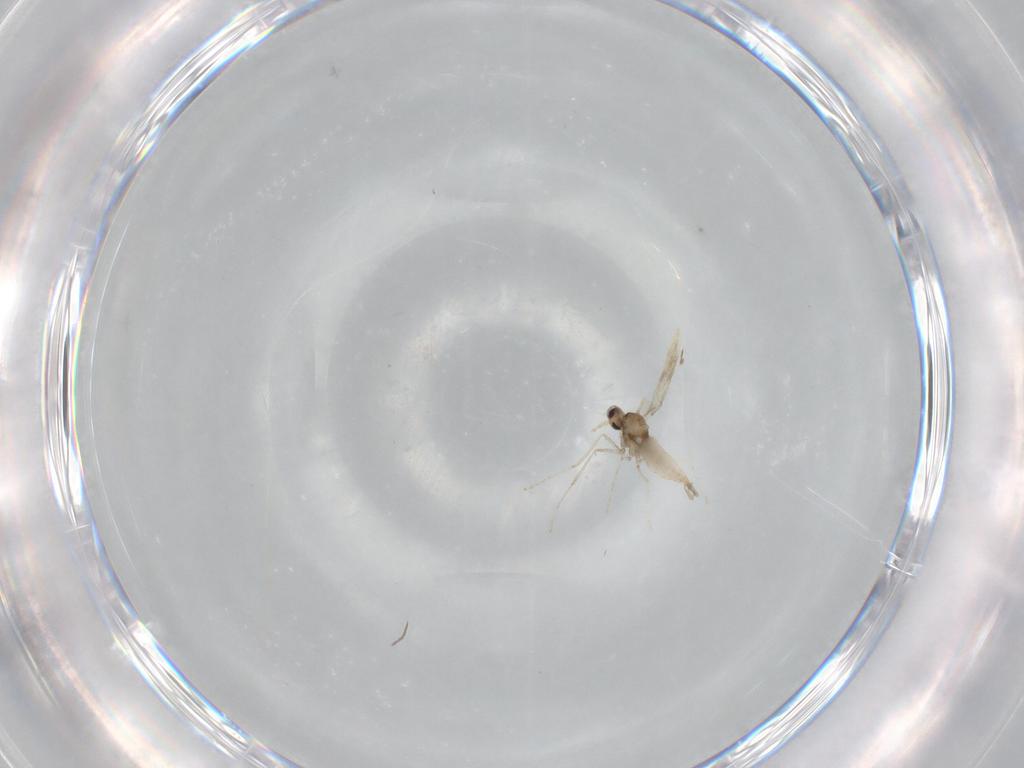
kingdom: Animalia
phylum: Arthropoda
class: Insecta
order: Diptera
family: Cecidomyiidae
